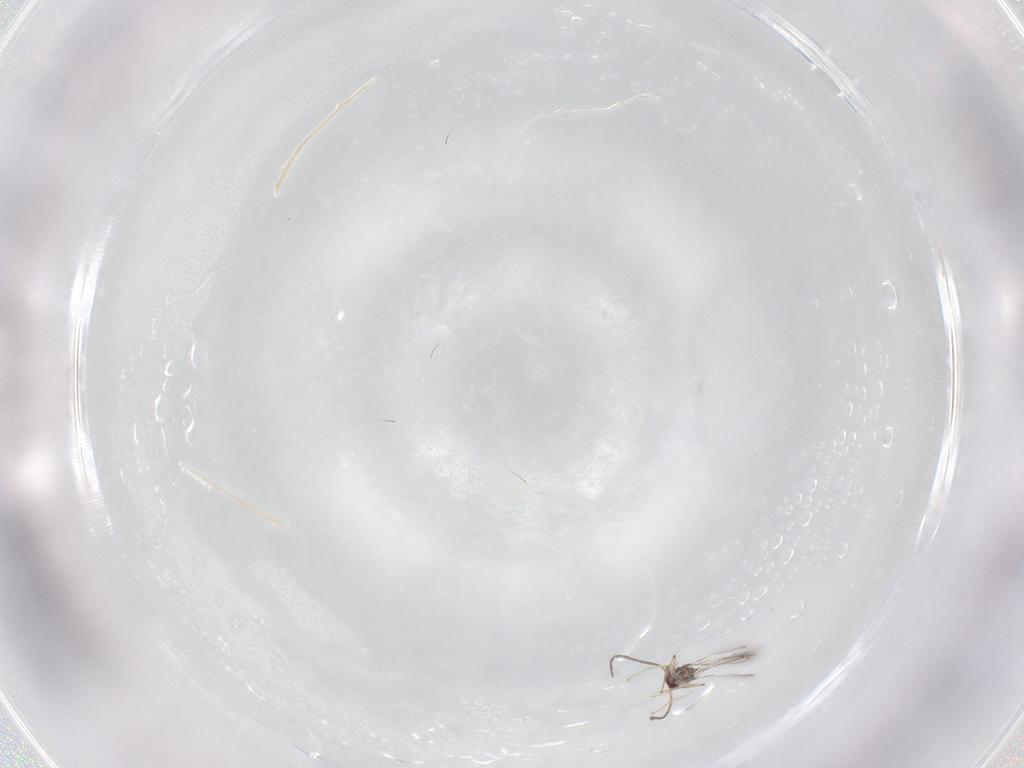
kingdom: Animalia
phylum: Arthropoda
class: Insecta
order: Hymenoptera
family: Mymaridae
